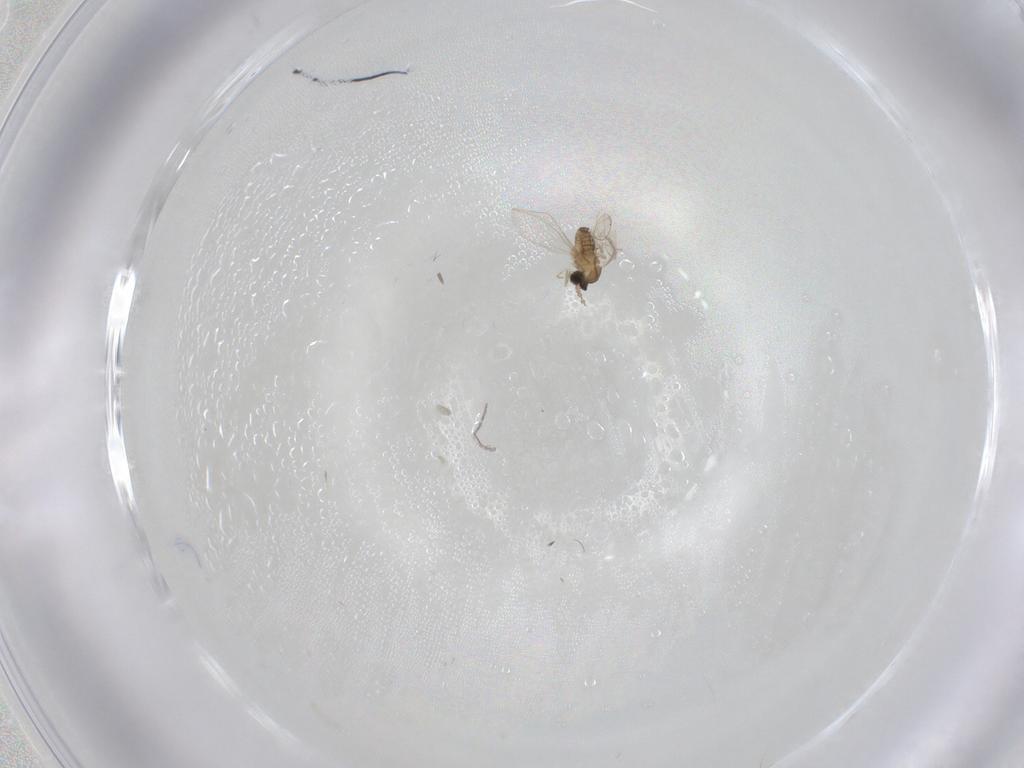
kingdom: Animalia
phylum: Arthropoda
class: Insecta
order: Diptera
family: Cecidomyiidae
